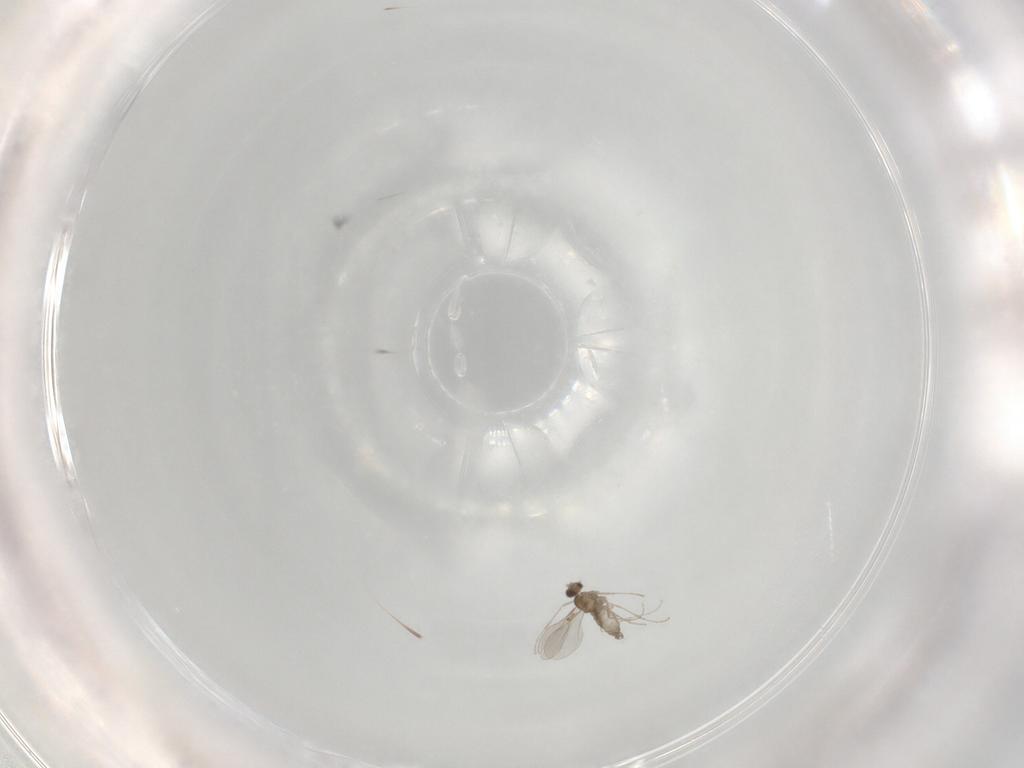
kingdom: Animalia
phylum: Arthropoda
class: Insecta
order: Diptera
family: Cecidomyiidae
